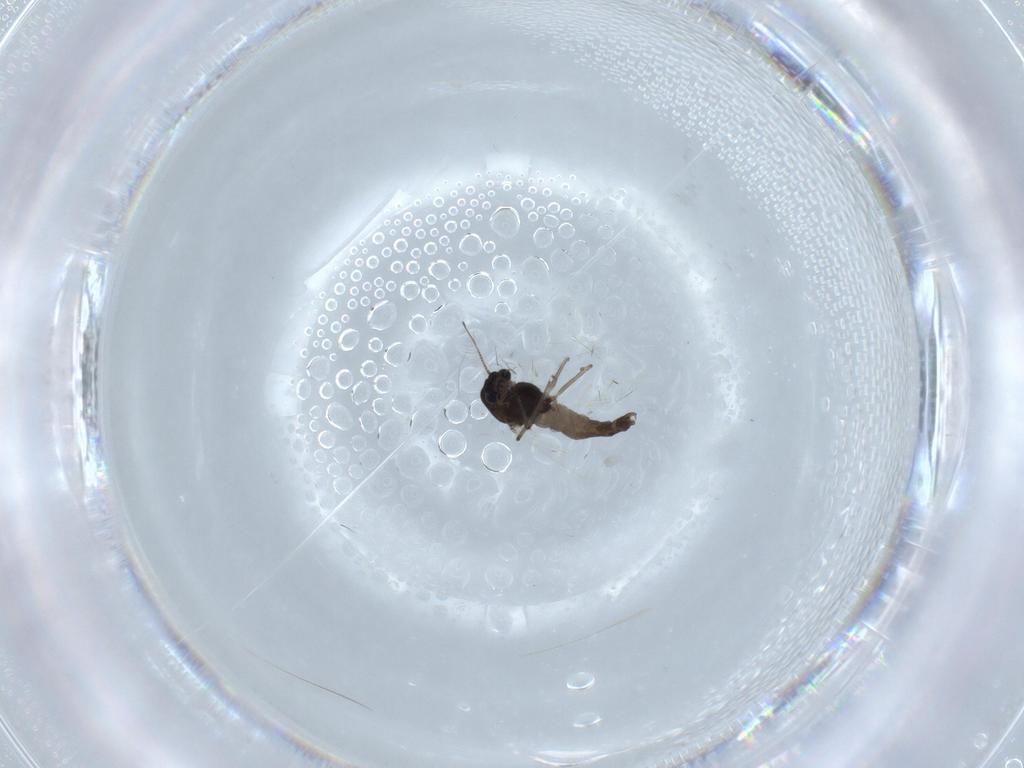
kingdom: Animalia
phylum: Arthropoda
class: Insecta
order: Diptera
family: Chironomidae
